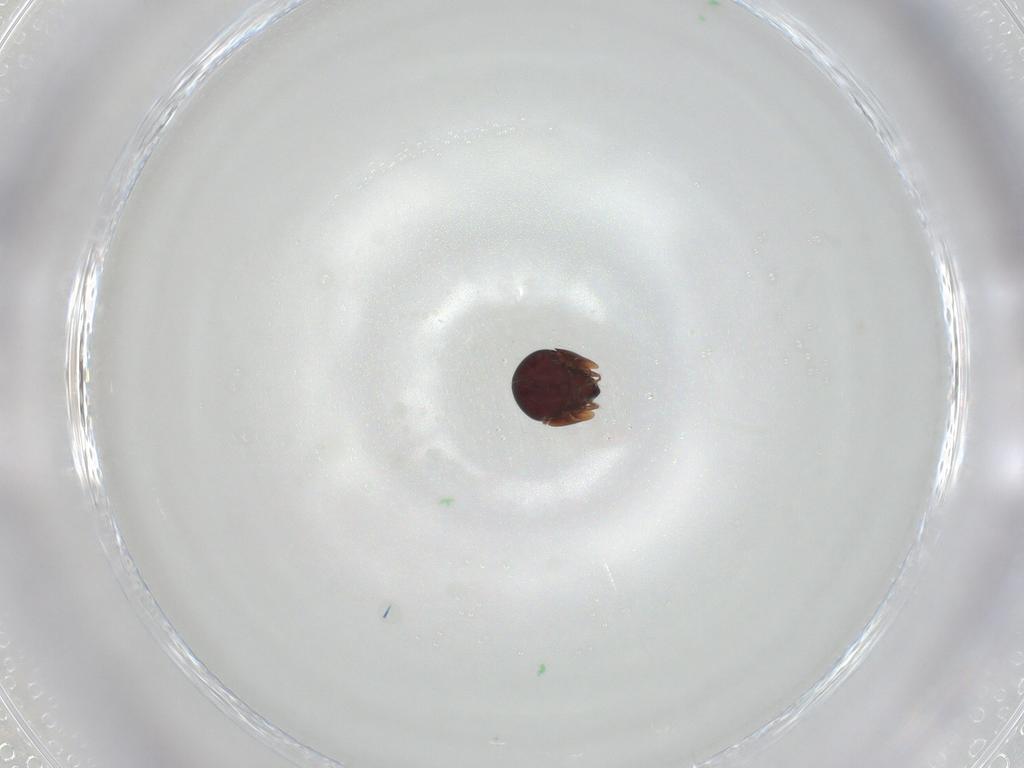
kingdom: Animalia
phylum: Arthropoda
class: Arachnida
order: Sarcoptiformes
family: Galumnidae
